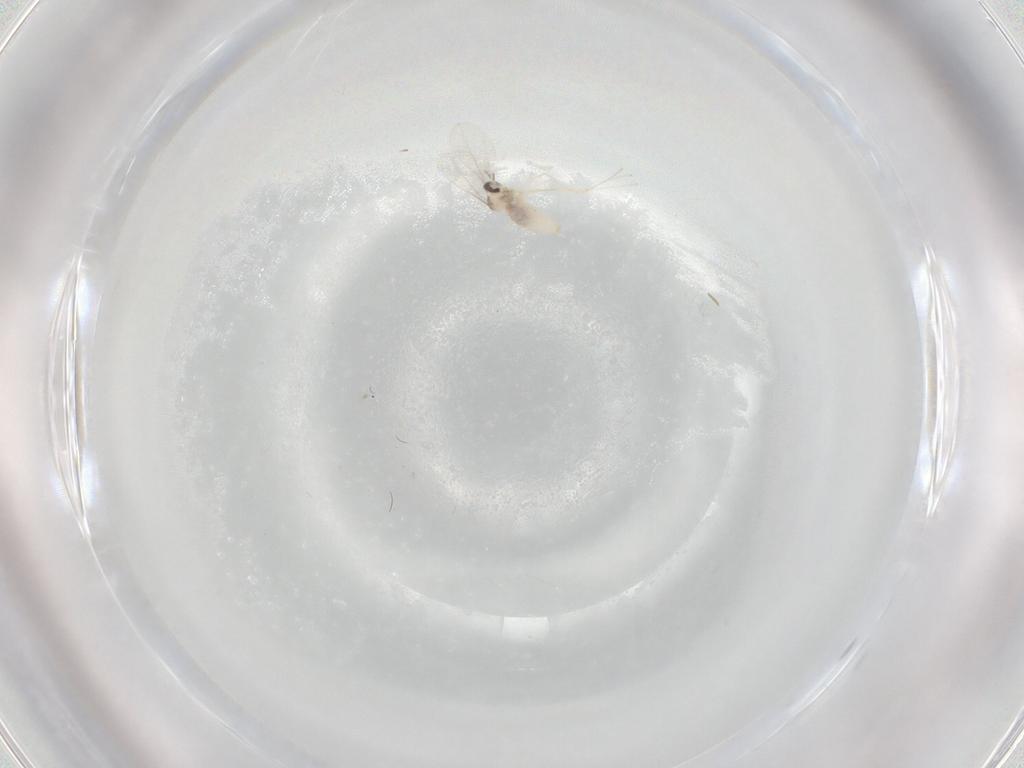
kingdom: Animalia
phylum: Arthropoda
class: Insecta
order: Diptera
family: Cecidomyiidae
